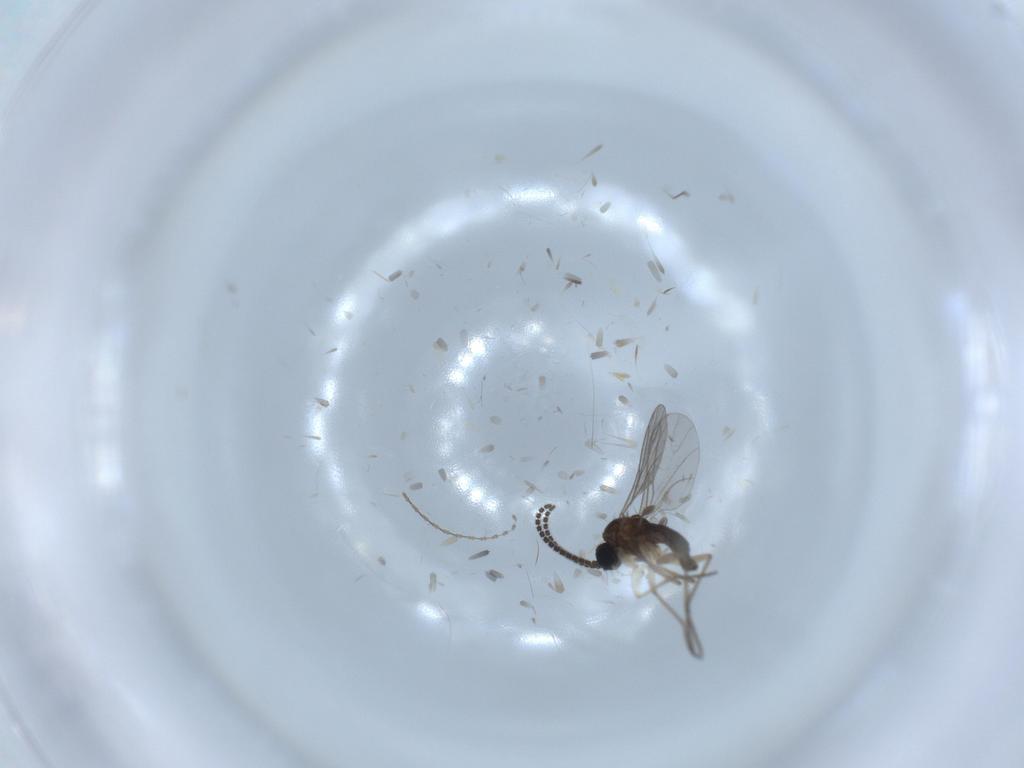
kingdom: Animalia
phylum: Arthropoda
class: Insecta
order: Diptera
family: Sciaridae
